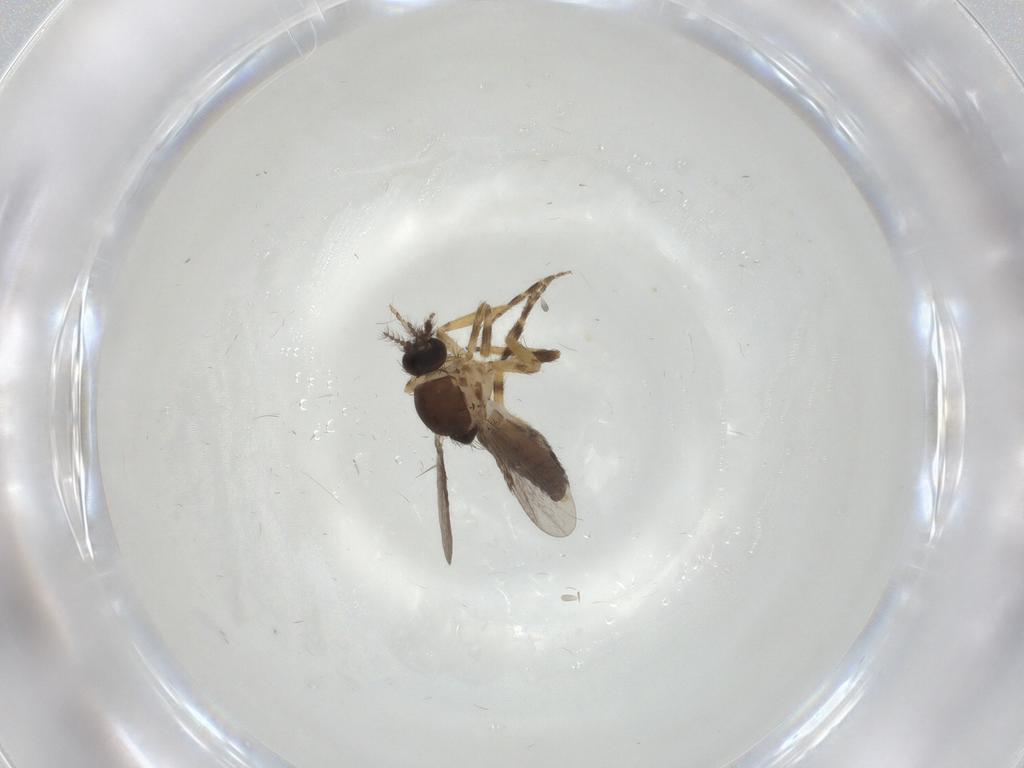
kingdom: Animalia
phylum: Arthropoda
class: Insecta
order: Diptera
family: Ceratopogonidae
